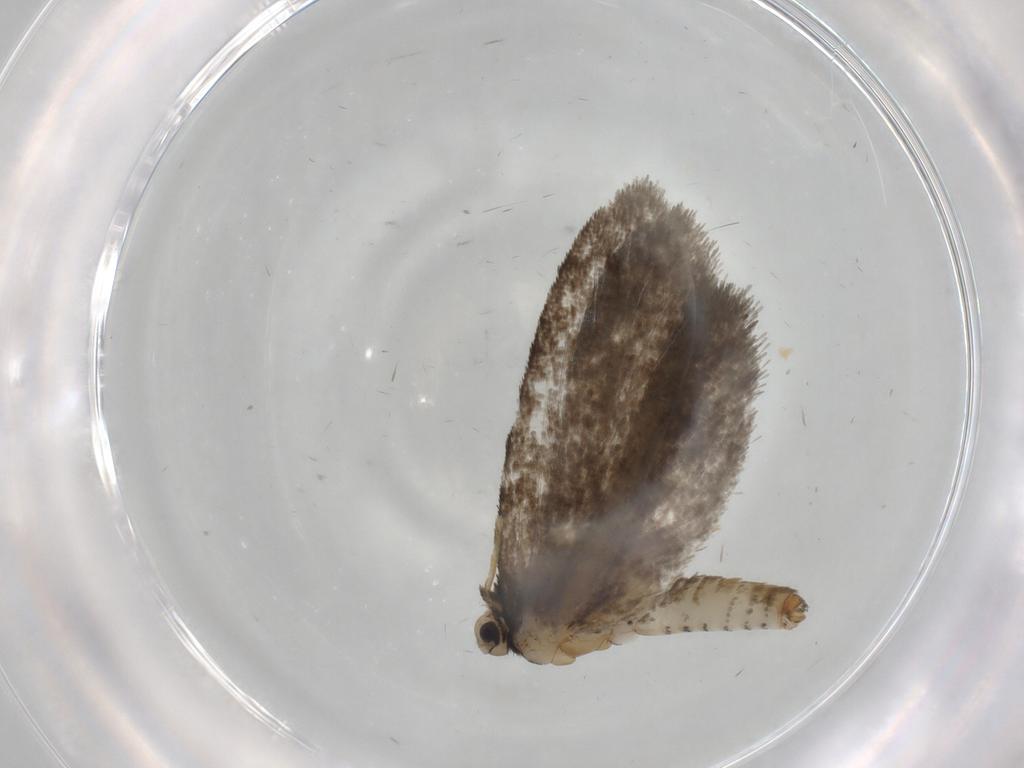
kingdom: Animalia
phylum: Arthropoda
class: Insecta
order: Lepidoptera
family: Psychidae
